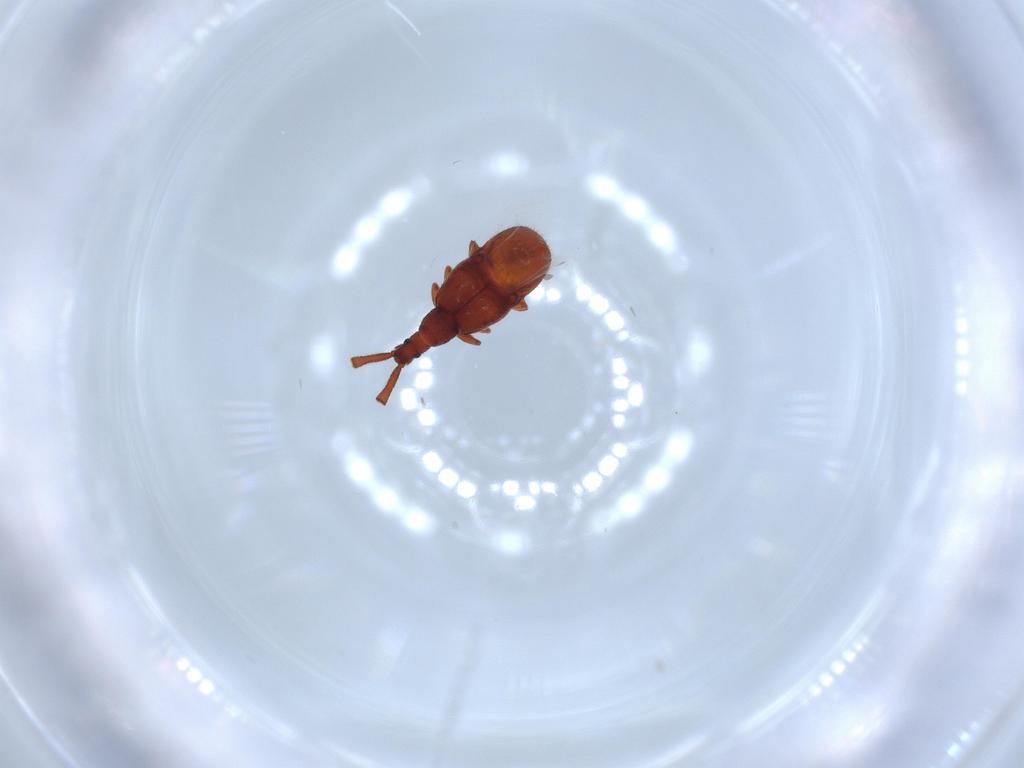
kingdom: Animalia
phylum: Arthropoda
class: Insecta
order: Coleoptera
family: Staphylinidae
